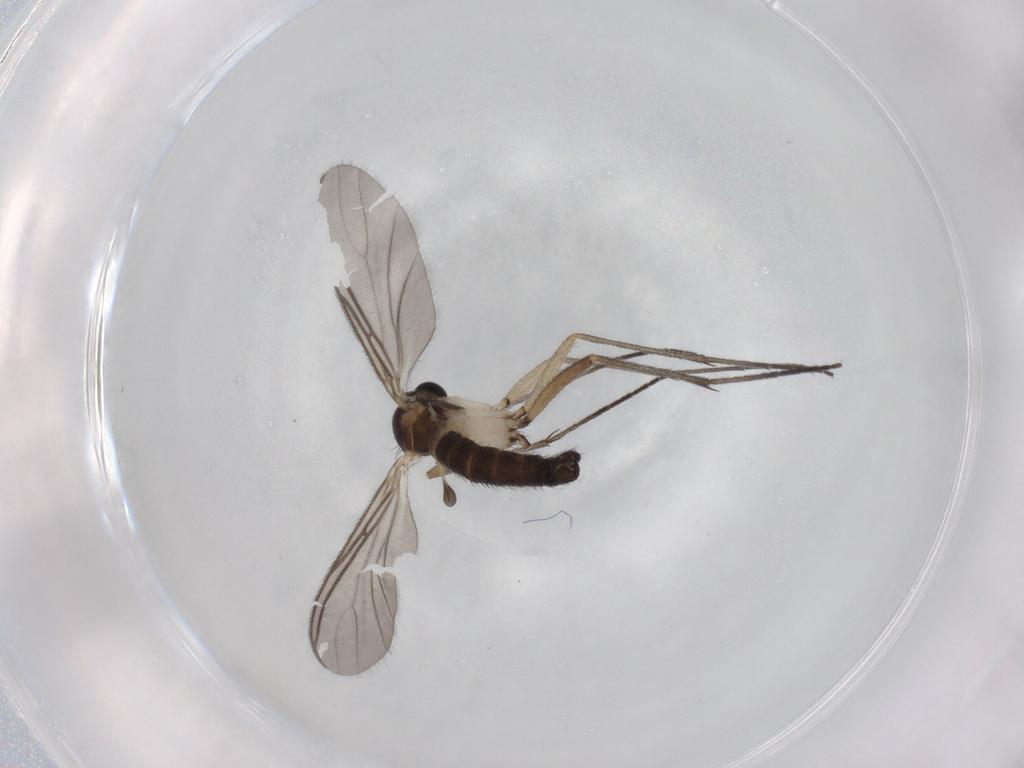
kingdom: Animalia
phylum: Arthropoda
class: Insecta
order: Diptera
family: Sciaridae
